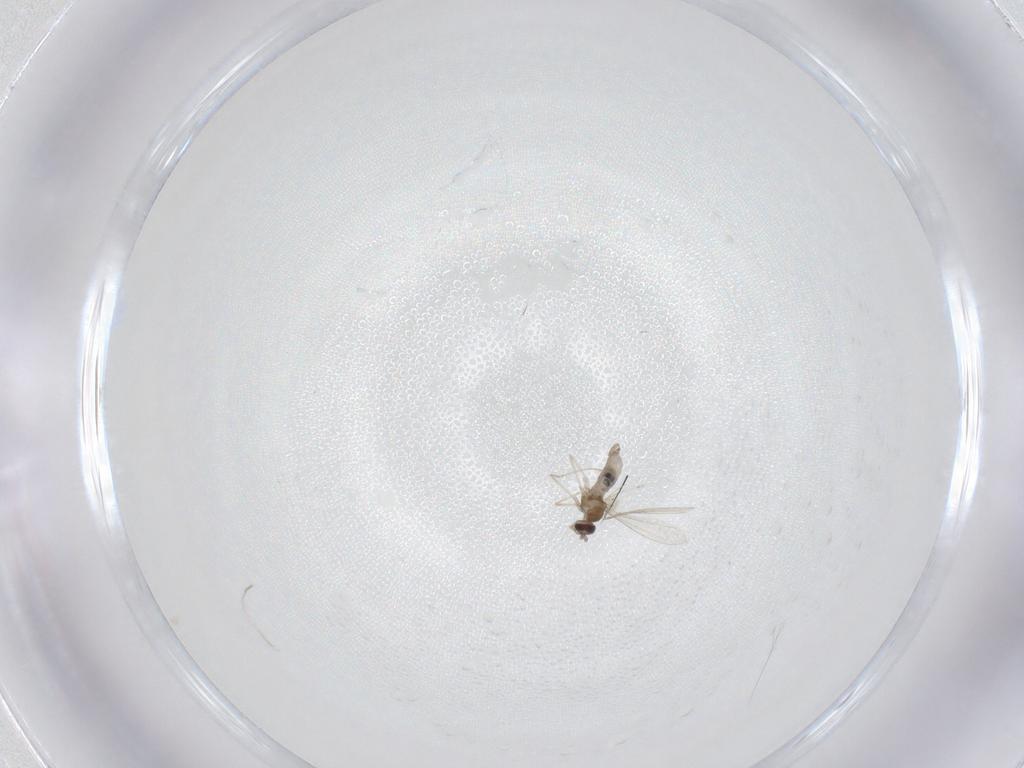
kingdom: Animalia
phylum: Arthropoda
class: Insecta
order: Diptera
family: Cecidomyiidae
